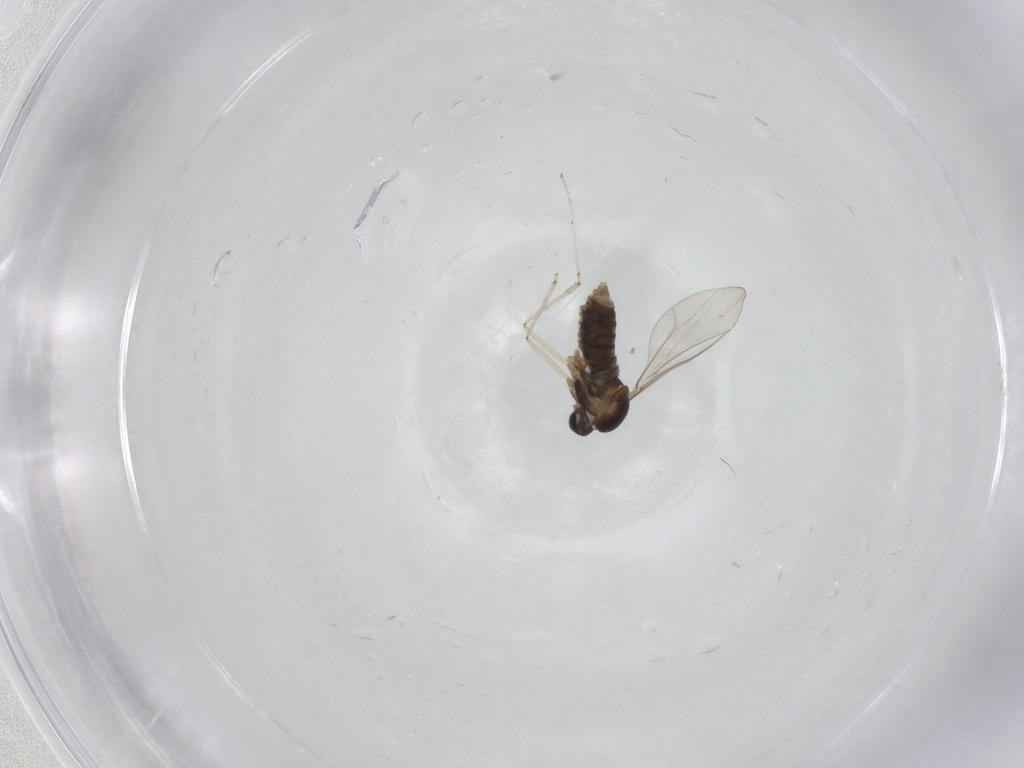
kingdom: Animalia
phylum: Arthropoda
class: Insecta
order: Diptera
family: Cecidomyiidae
